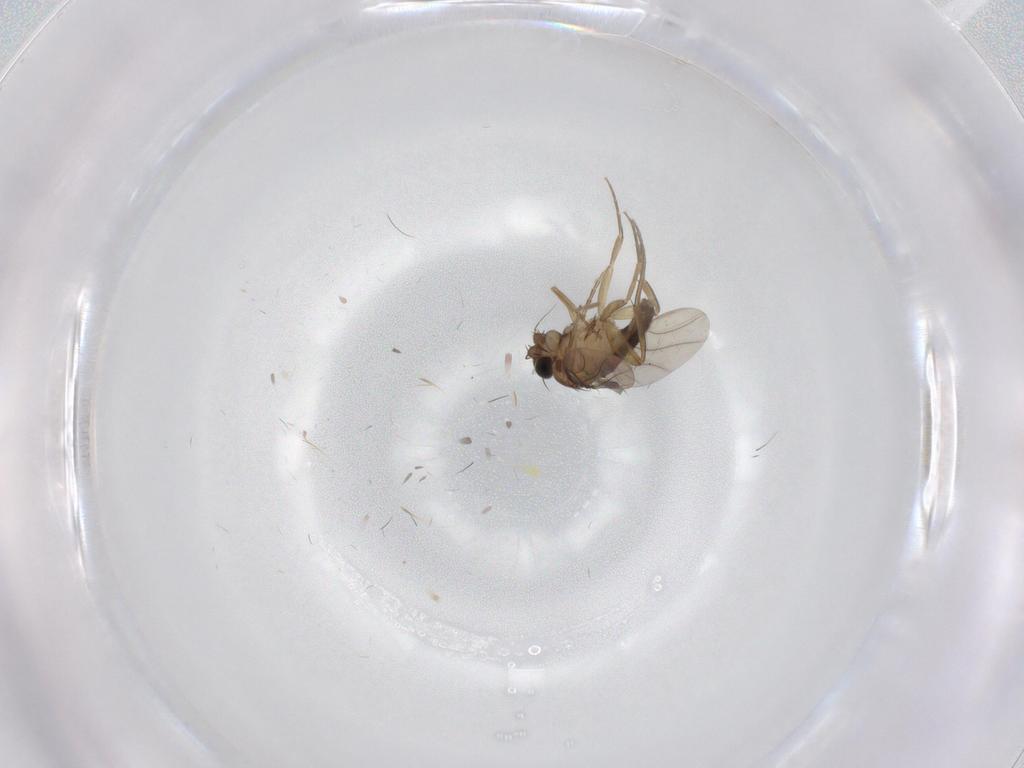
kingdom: Animalia
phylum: Arthropoda
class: Insecta
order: Diptera
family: Phoridae
